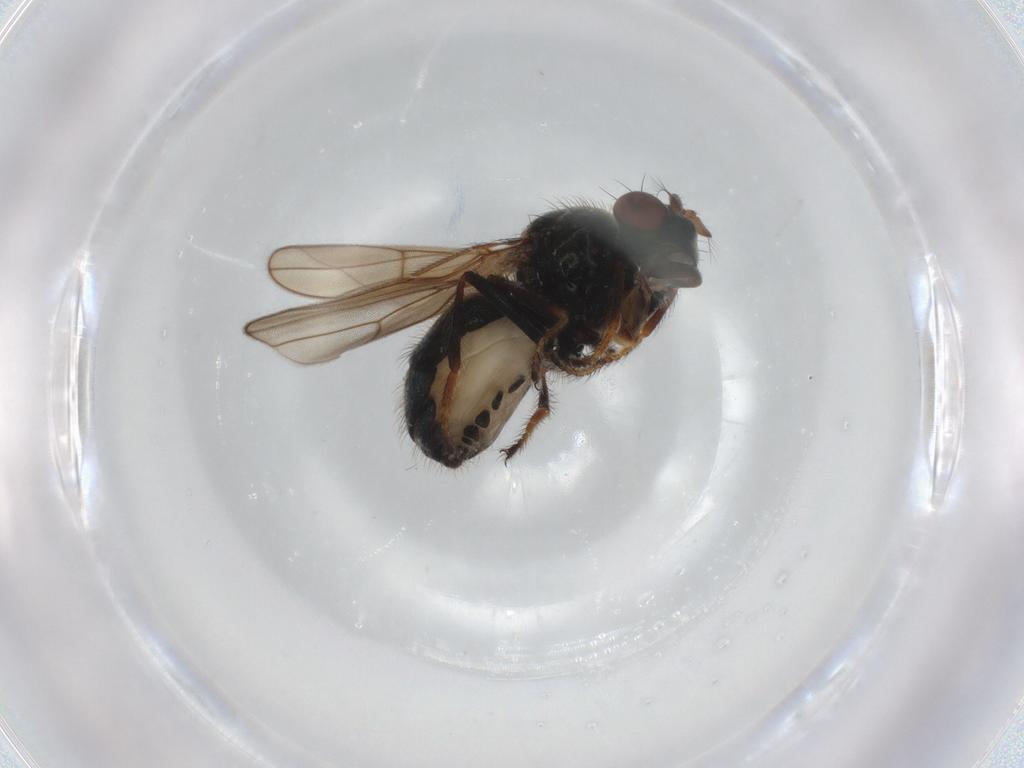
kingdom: Animalia
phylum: Arthropoda
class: Insecta
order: Diptera
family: Ephydridae
